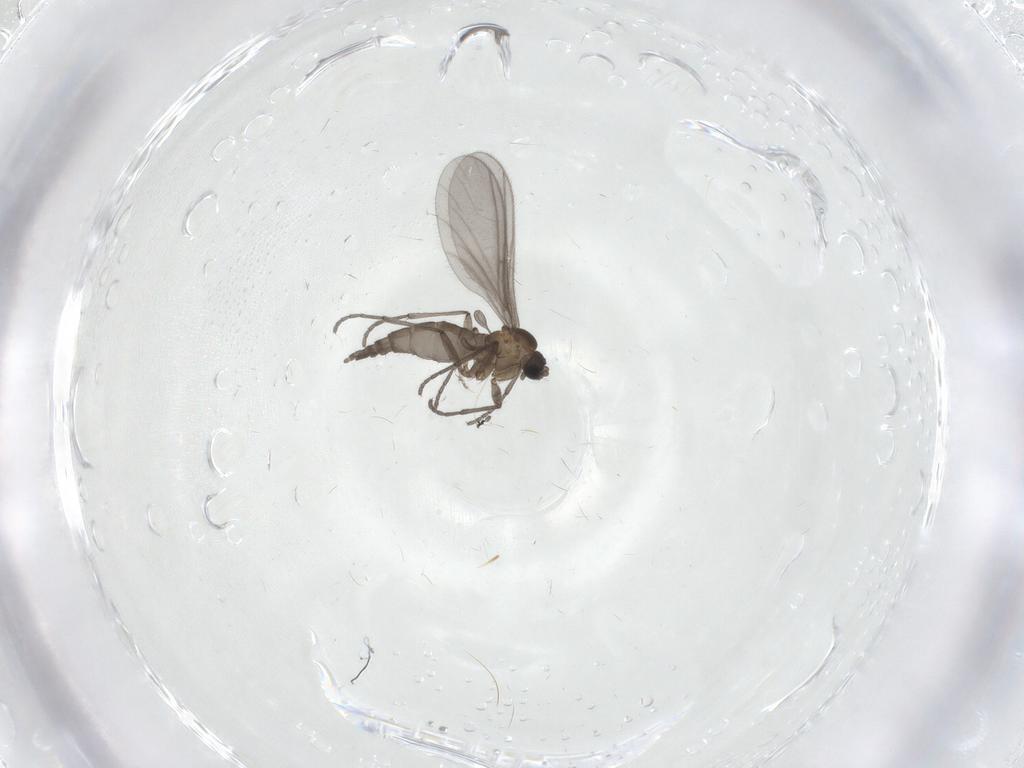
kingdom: Animalia
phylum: Arthropoda
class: Insecta
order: Diptera
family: Sciaridae
